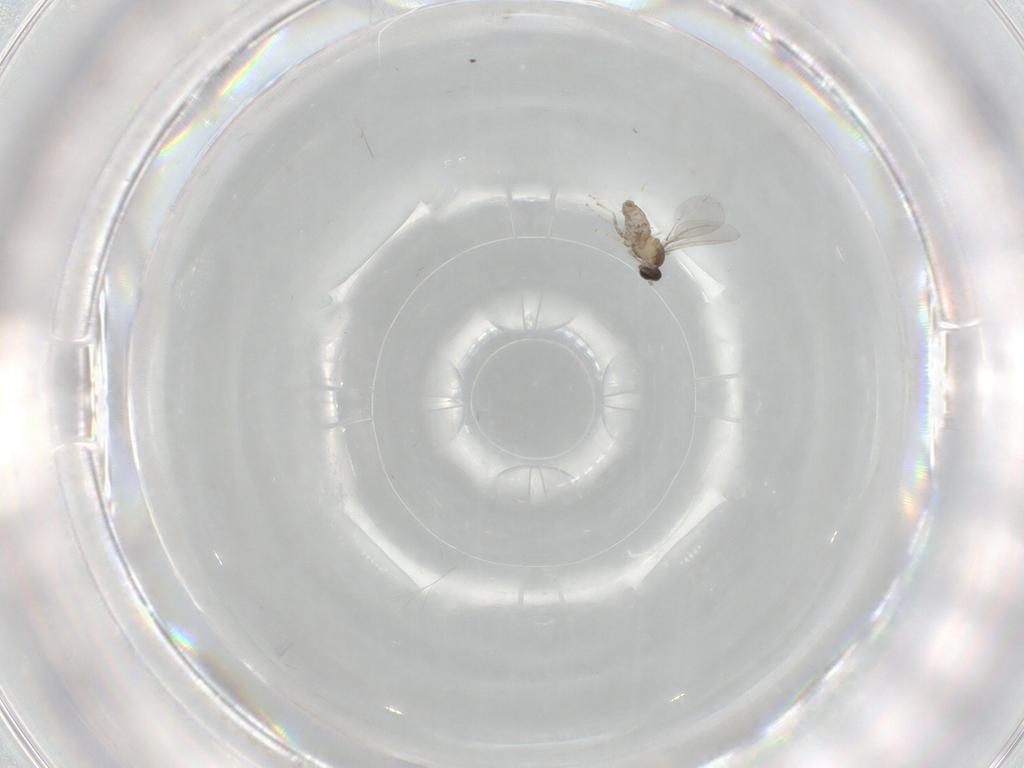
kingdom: Animalia
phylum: Arthropoda
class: Insecta
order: Diptera
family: Cecidomyiidae
